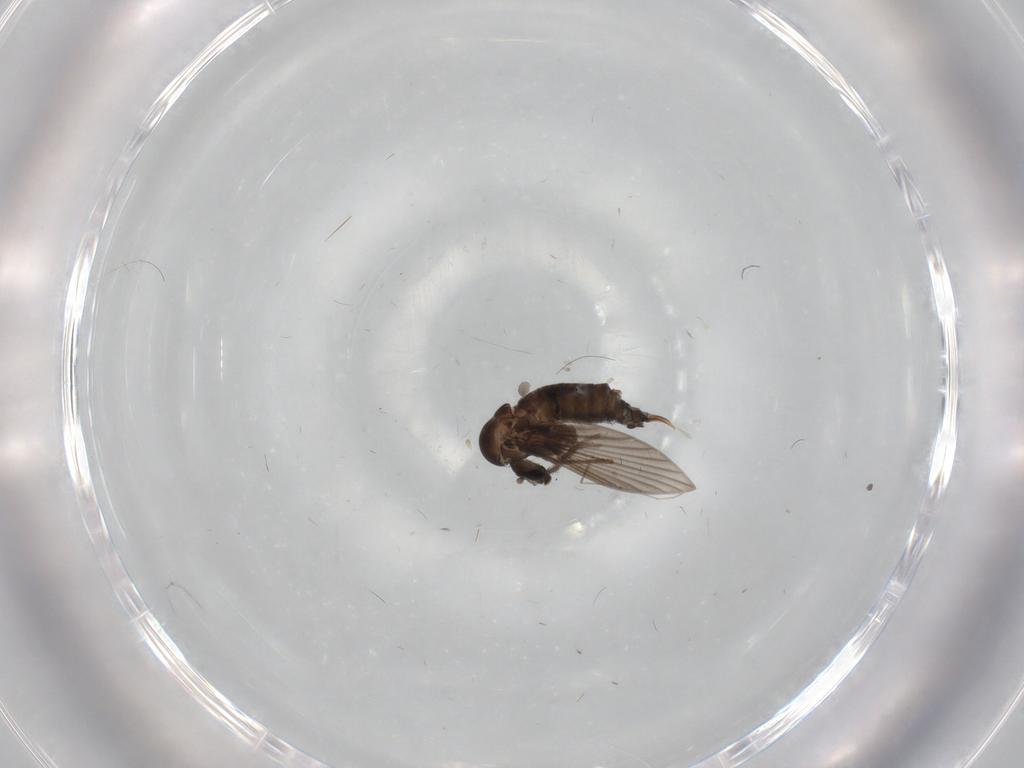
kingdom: Animalia
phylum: Arthropoda
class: Insecta
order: Diptera
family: Psychodidae
